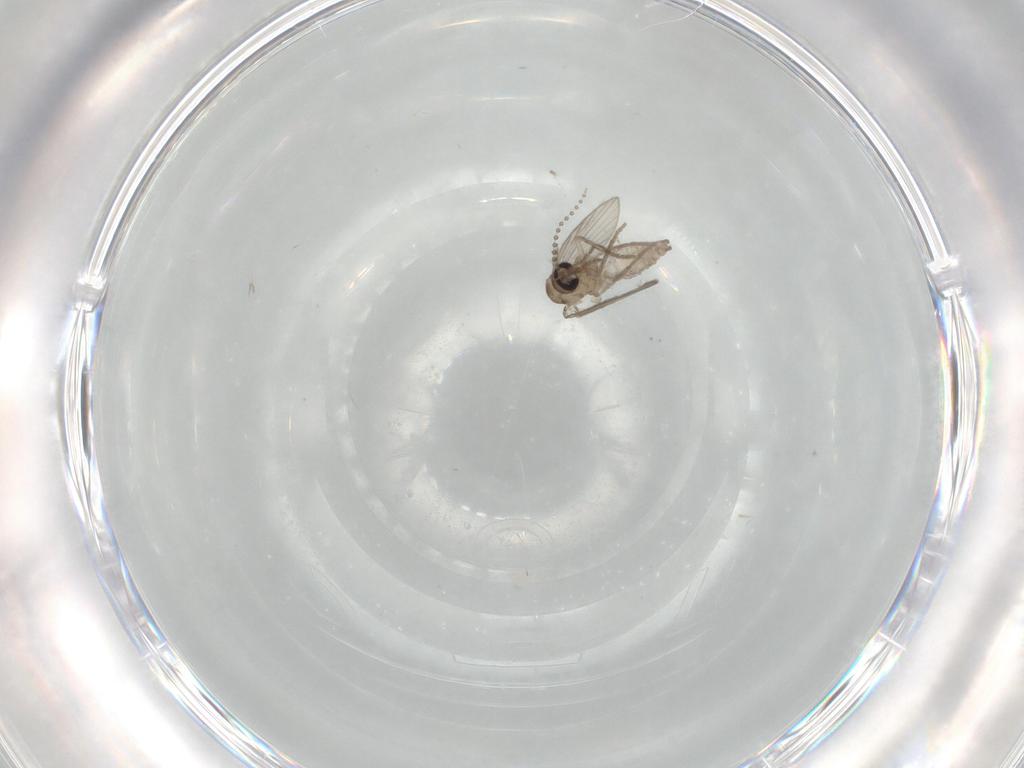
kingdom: Animalia
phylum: Arthropoda
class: Insecta
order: Diptera
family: Psychodidae
